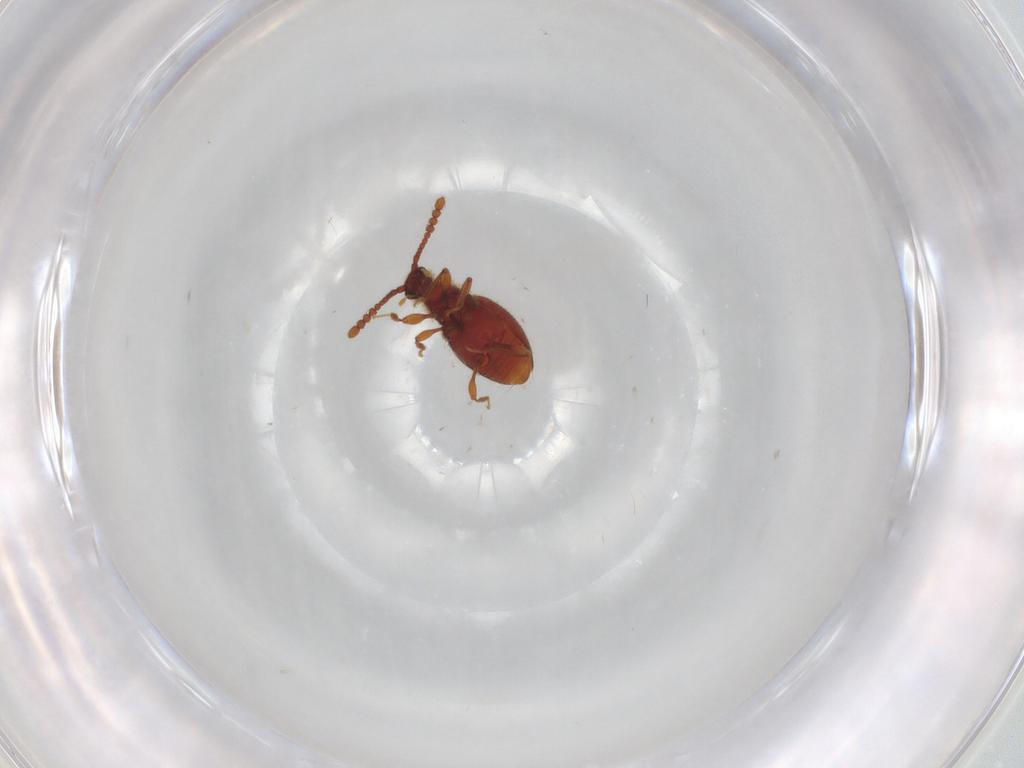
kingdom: Animalia
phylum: Arthropoda
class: Insecta
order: Coleoptera
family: Staphylinidae
